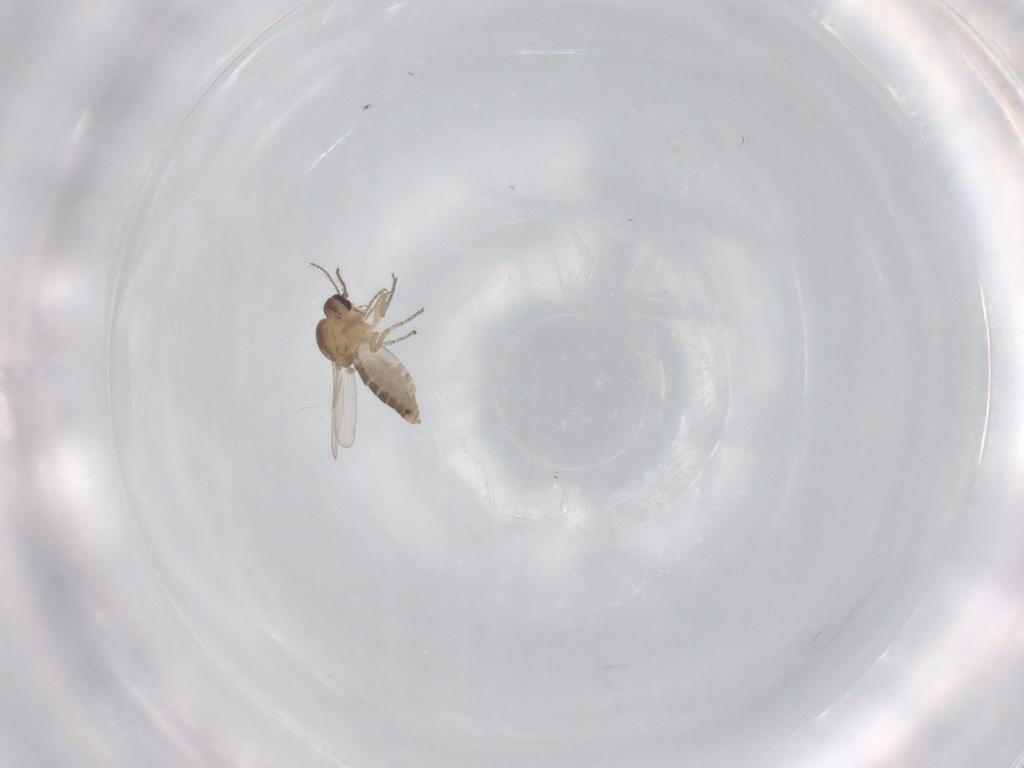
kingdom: Animalia
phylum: Arthropoda
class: Insecta
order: Diptera
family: Ceratopogonidae
